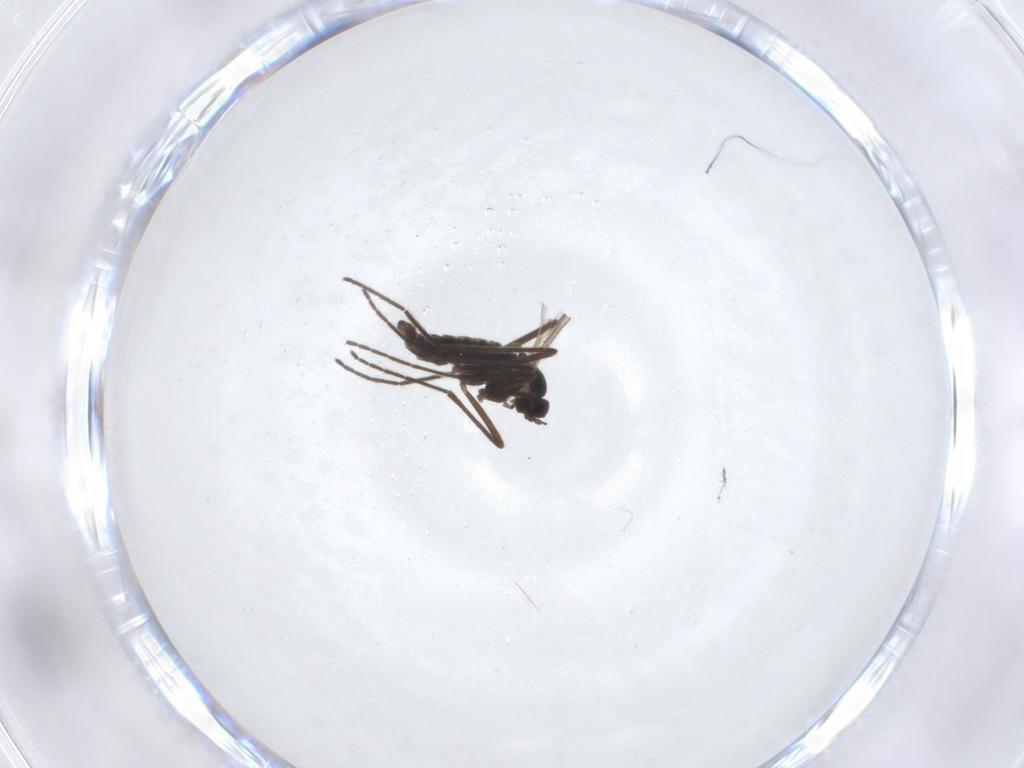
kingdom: Animalia
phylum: Arthropoda
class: Insecta
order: Diptera
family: Cecidomyiidae
